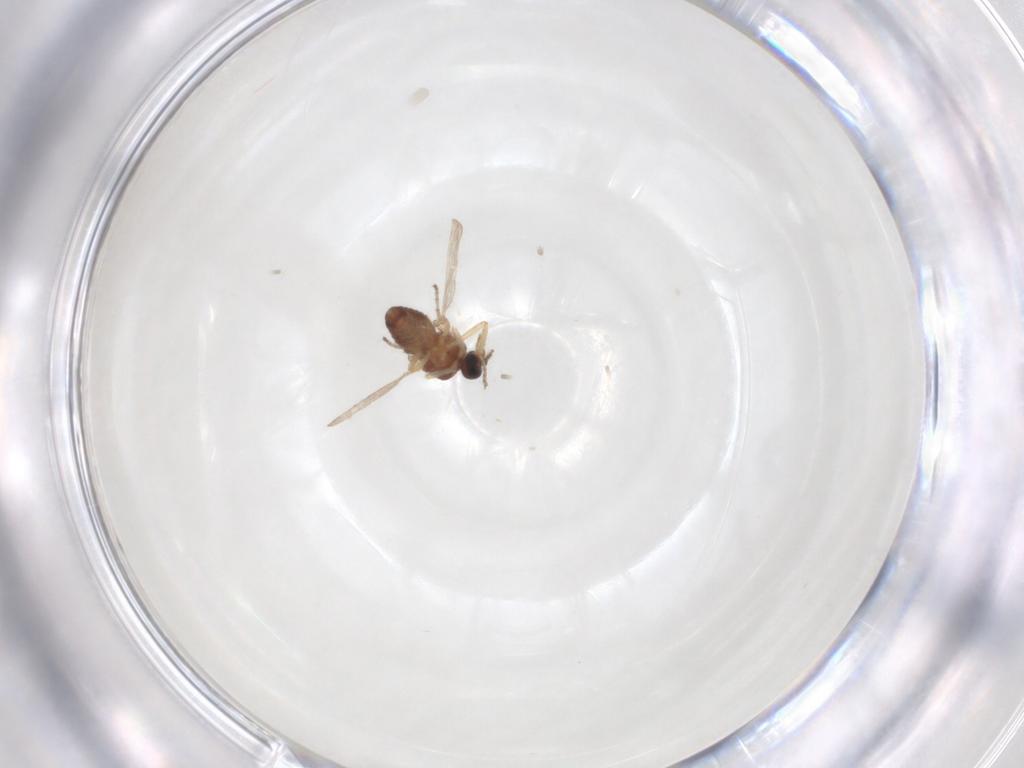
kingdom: Animalia
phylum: Arthropoda
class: Insecta
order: Diptera
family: Ceratopogonidae
